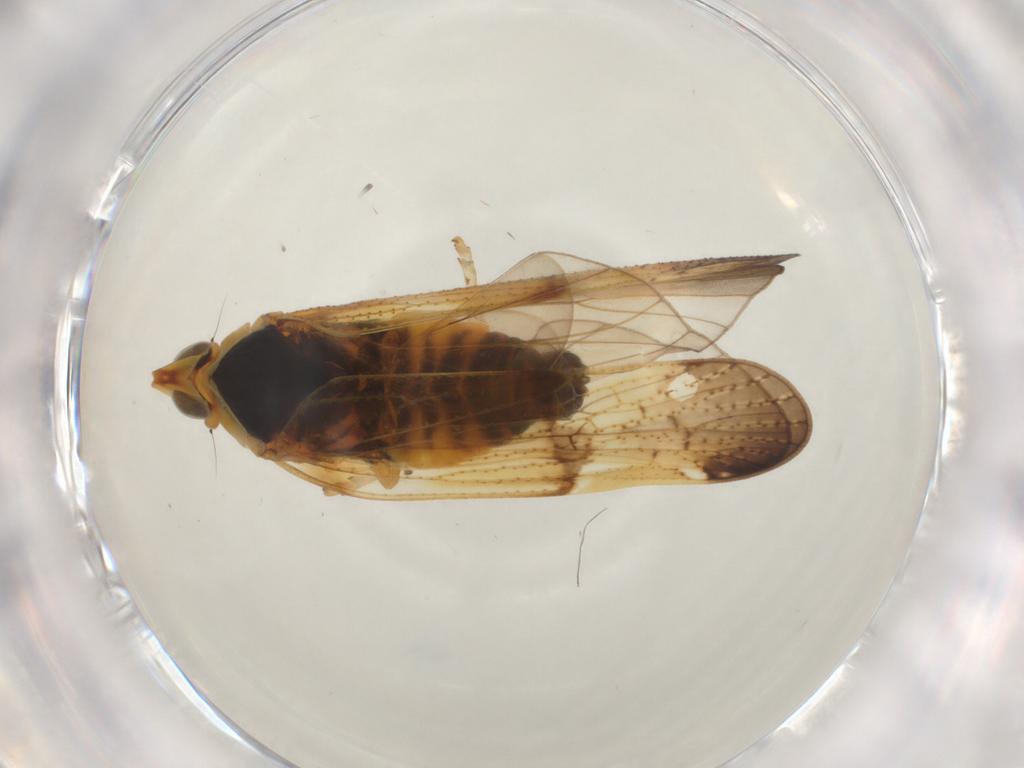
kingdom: Animalia
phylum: Arthropoda
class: Insecta
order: Hemiptera
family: Cixiidae
